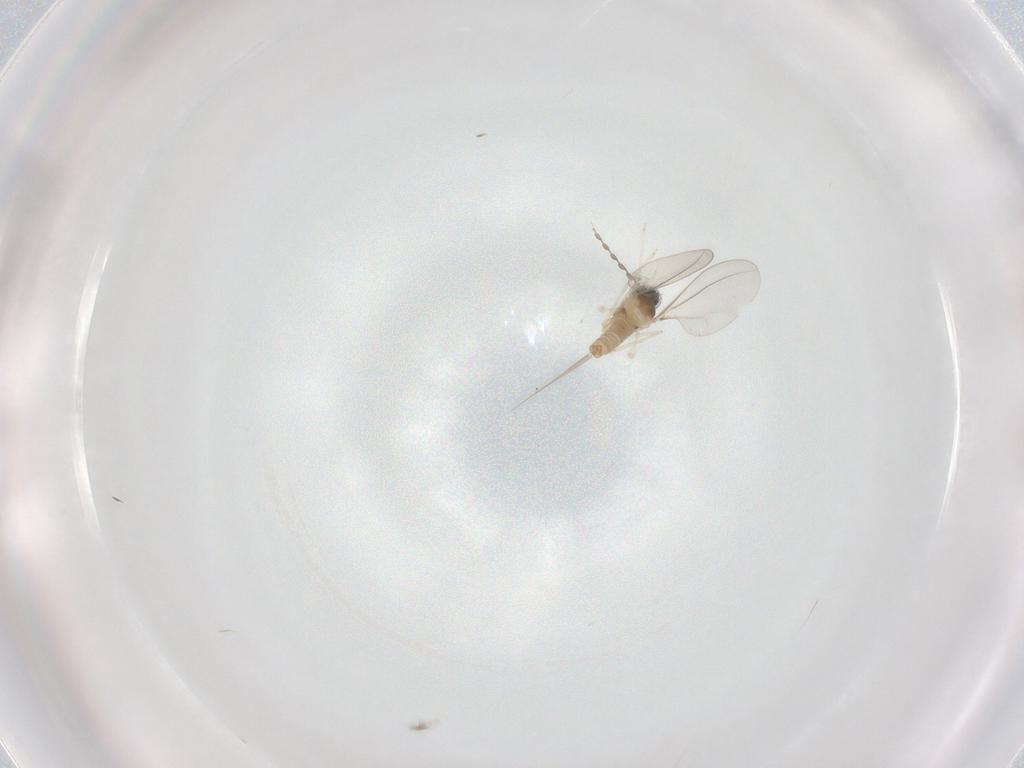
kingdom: Animalia
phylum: Arthropoda
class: Insecta
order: Diptera
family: Cecidomyiidae
